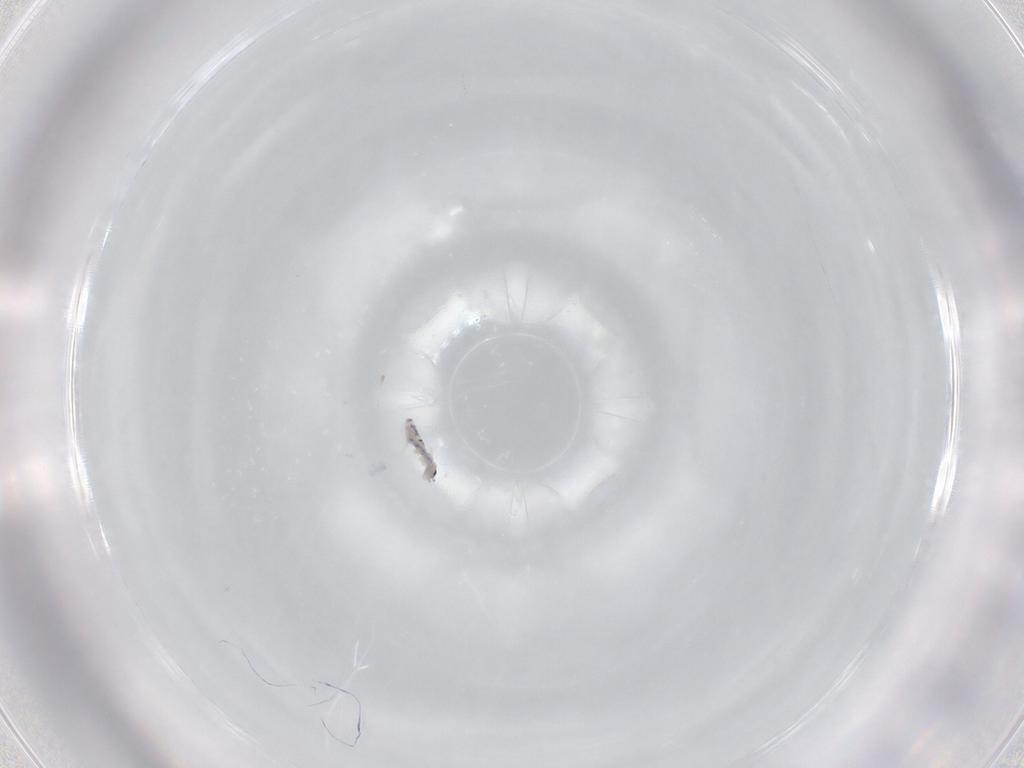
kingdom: Animalia
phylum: Arthropoda
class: Collembola
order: Entomobryomorpha
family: Entomobryidae
